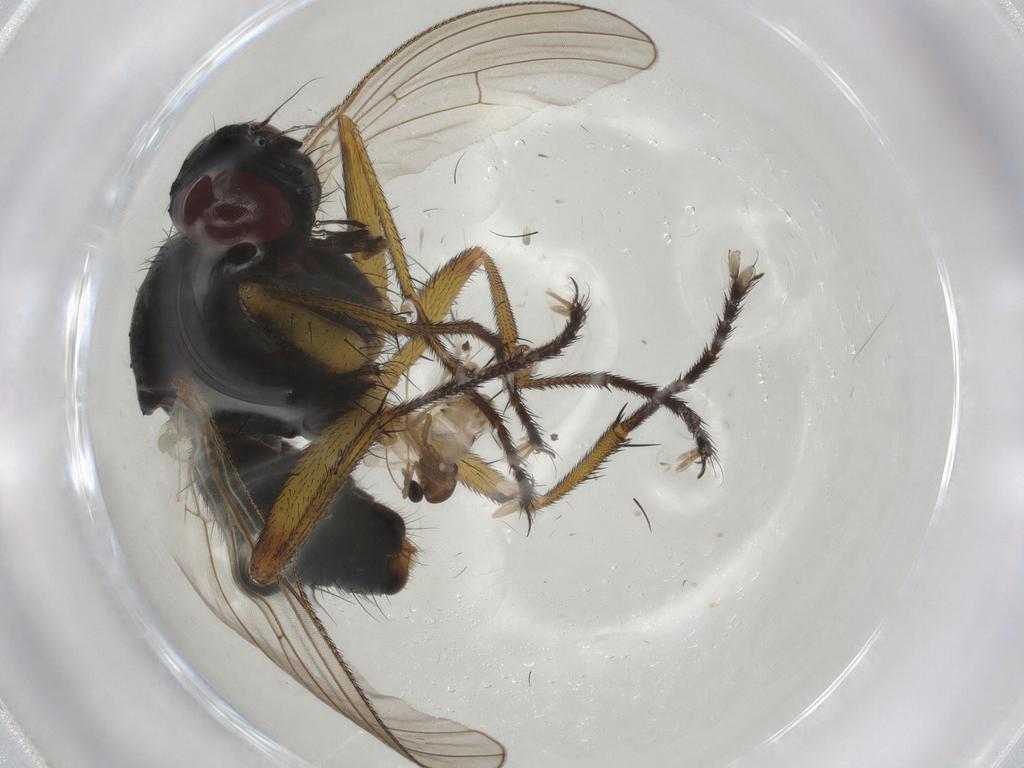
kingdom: Animalia
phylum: Arthropoda
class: Insecta
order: Diptera
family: Muscidae
